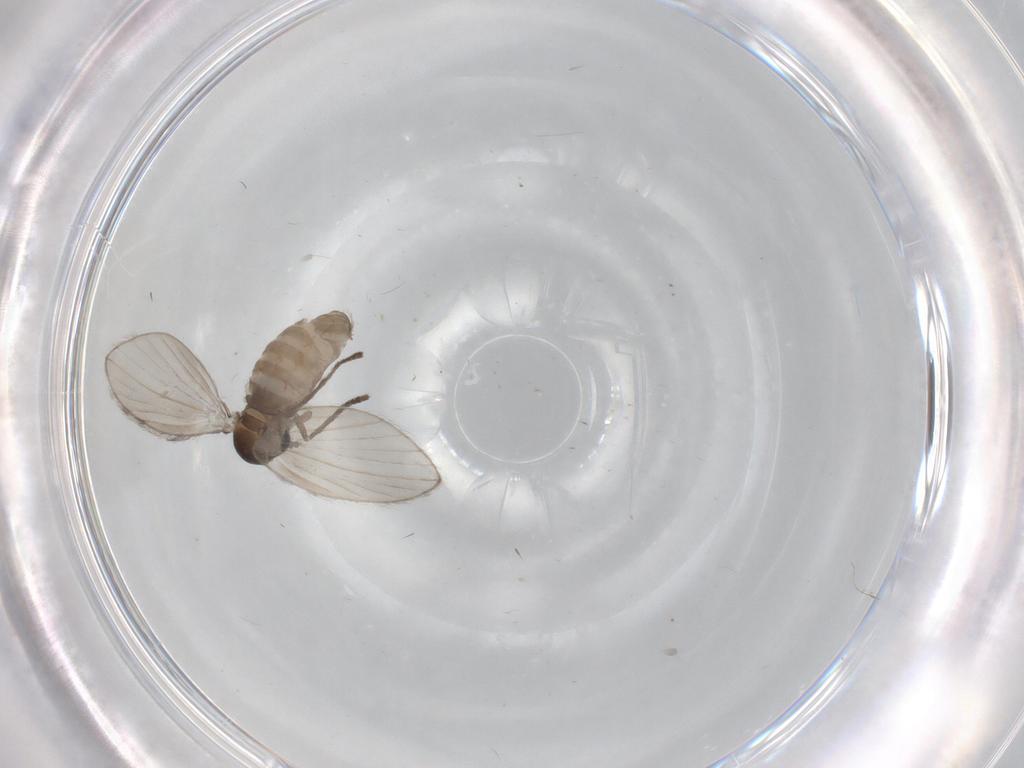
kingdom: Animalia
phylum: Arthropoda
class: Insecta
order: Diptera
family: Psychodidae
